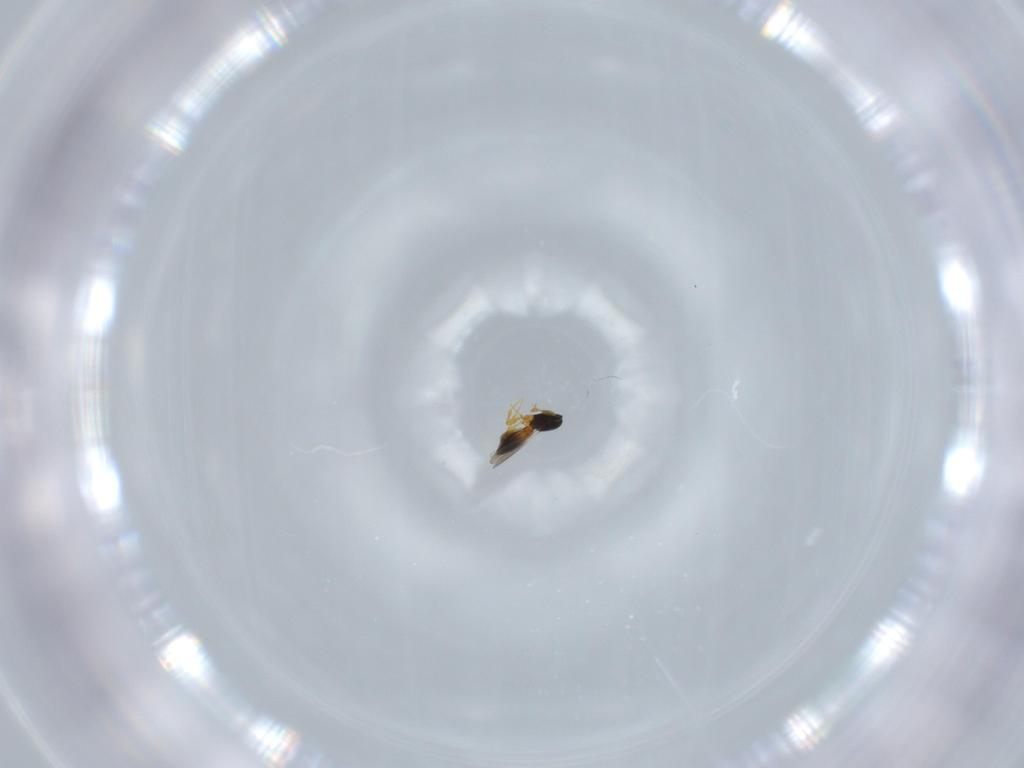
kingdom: Animalia
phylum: Arthropoda
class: Insecta
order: Hymenoptera
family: Platygastridae
